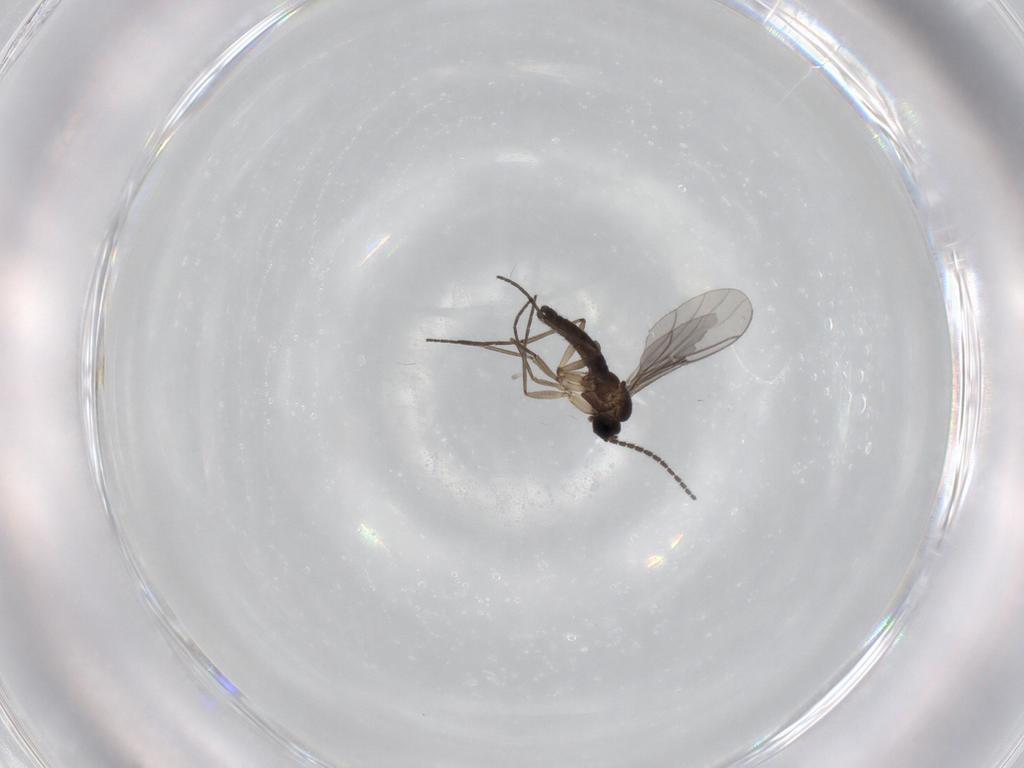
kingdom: Animalia
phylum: Arthropoda
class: Insecta
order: Diptera
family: Sciaridae
